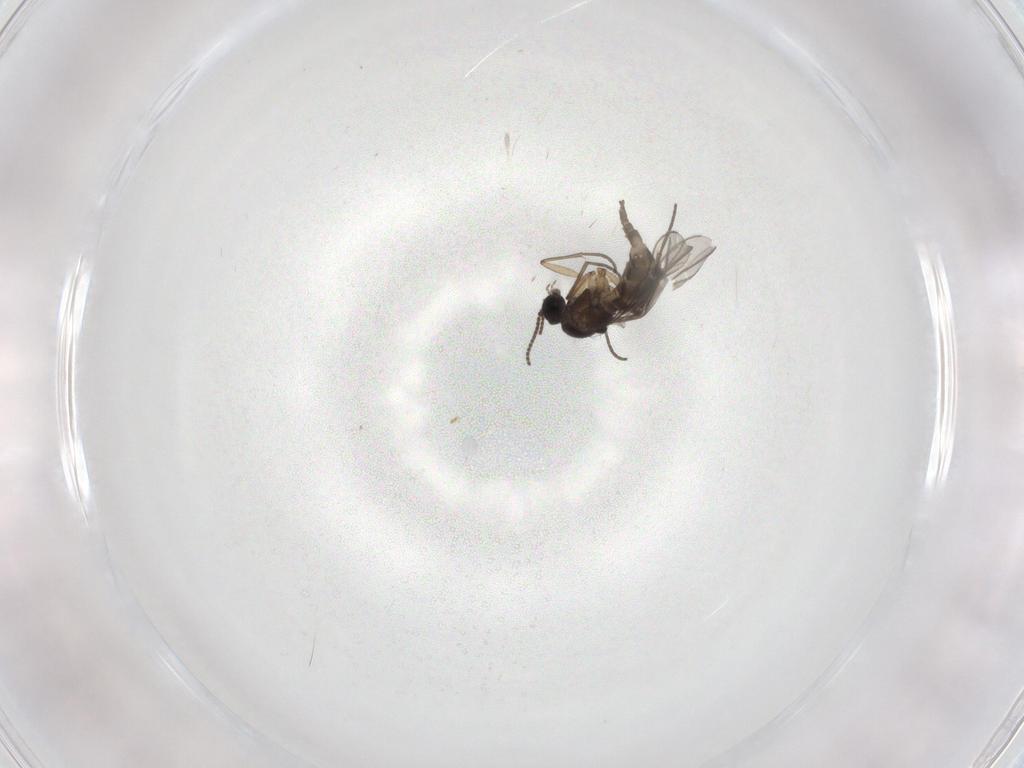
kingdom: Animalia
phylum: Arthropoda
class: Insecta
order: Diptera
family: Sciaridae
